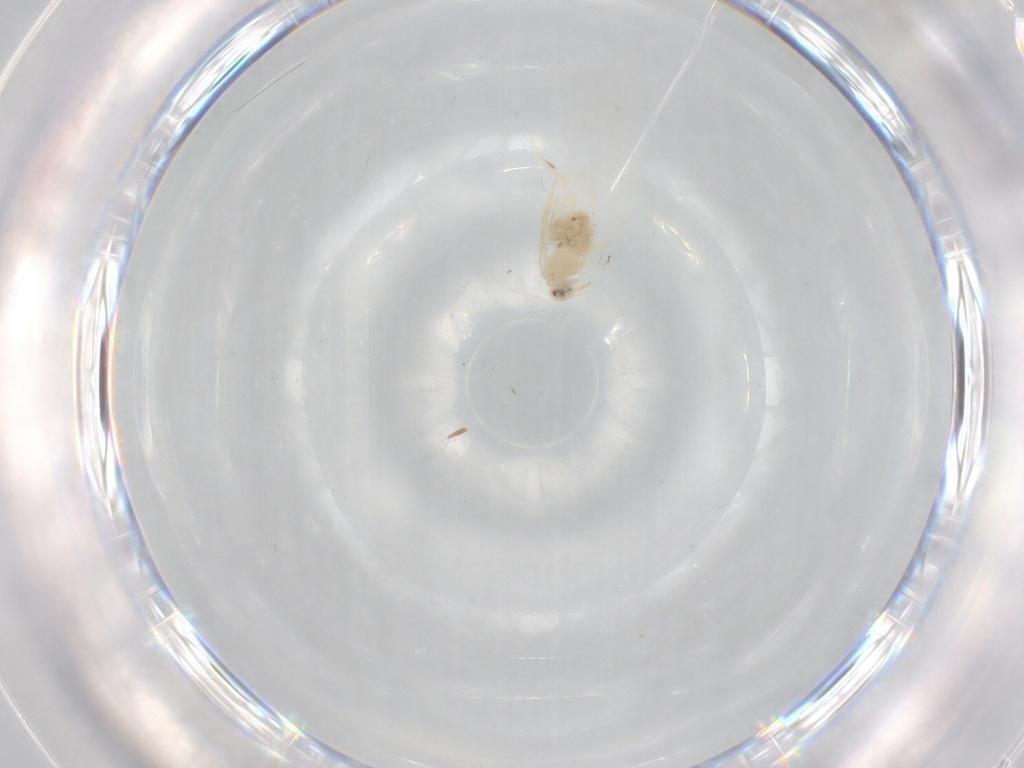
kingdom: Animalia
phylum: Arthropoda
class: Insecta
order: Hemiptera
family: Aleyrodidae
